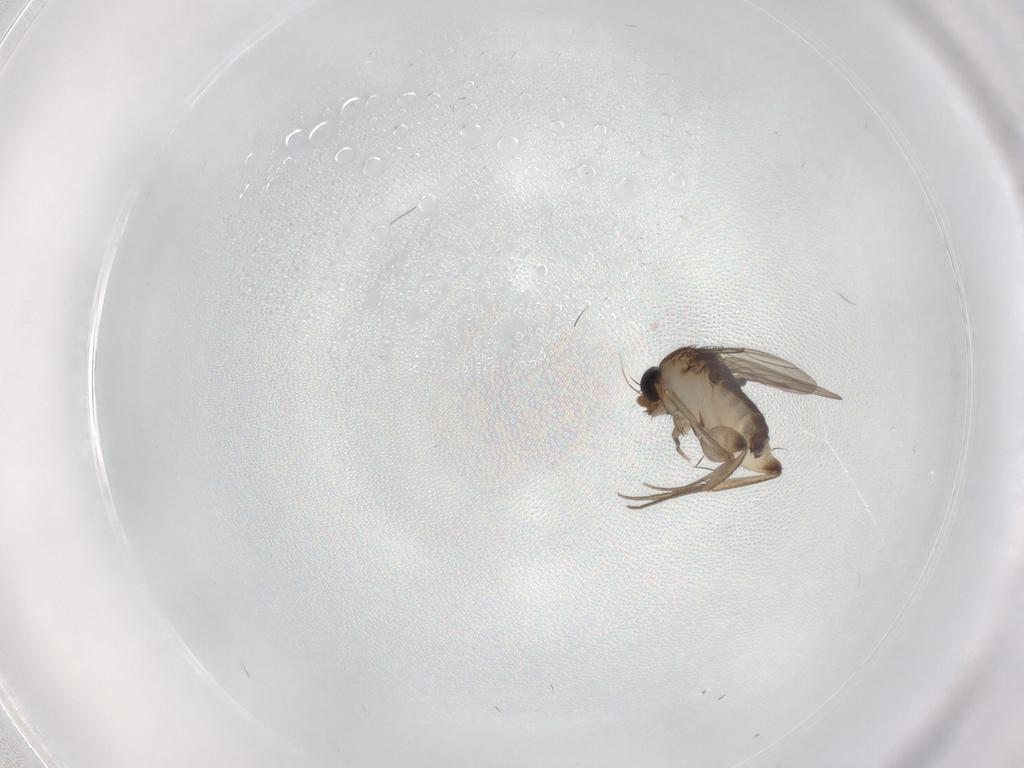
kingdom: Animalia
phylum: Arthropoda
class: Insecta
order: Diptera
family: Phoridae
